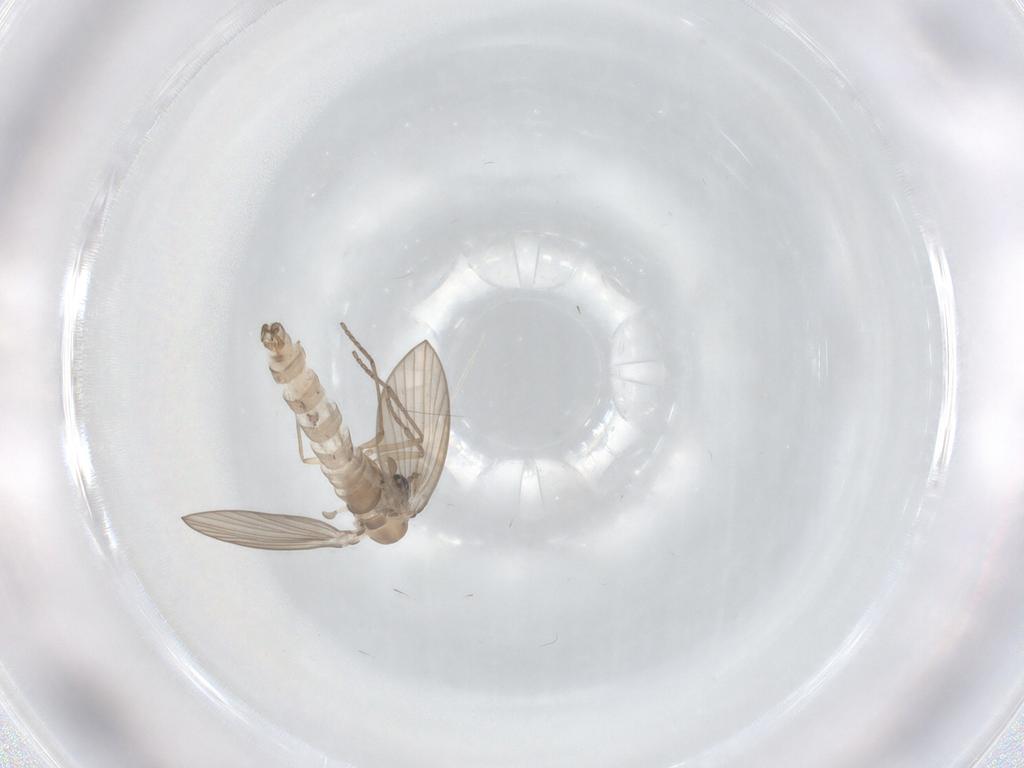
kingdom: Animalia
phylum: Arthropoda
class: Insecta
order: Diptera
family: Psychodidae
